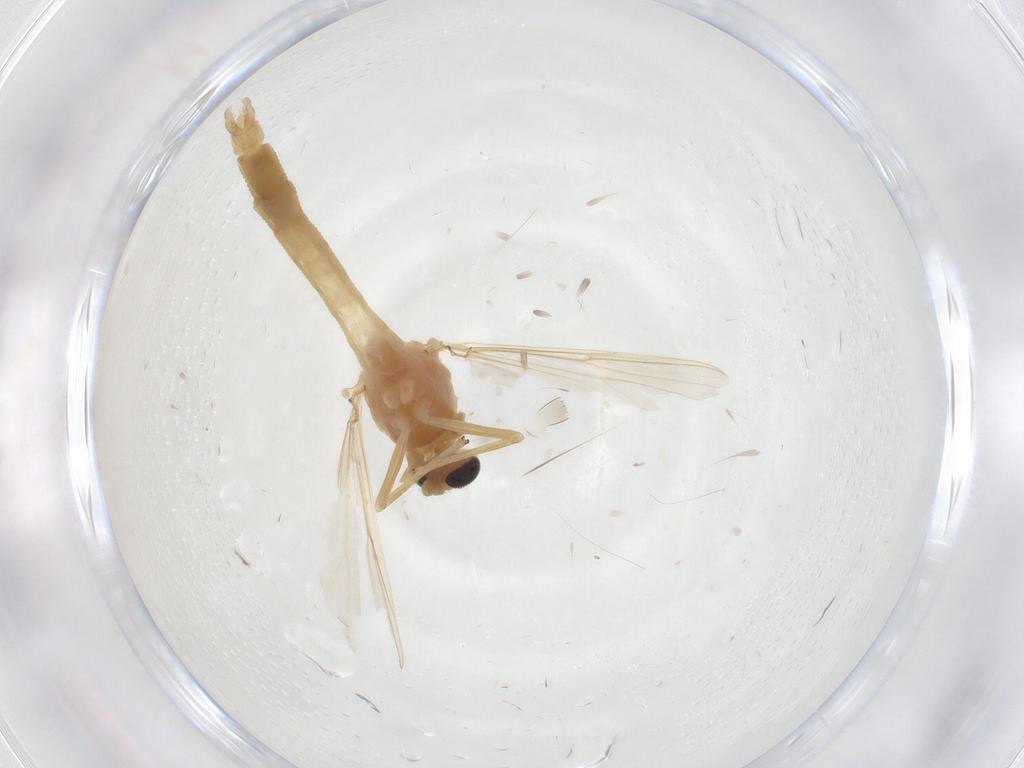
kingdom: Animalia
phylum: Arthropoda
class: Insecta
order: Diptera
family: Chironomidae
